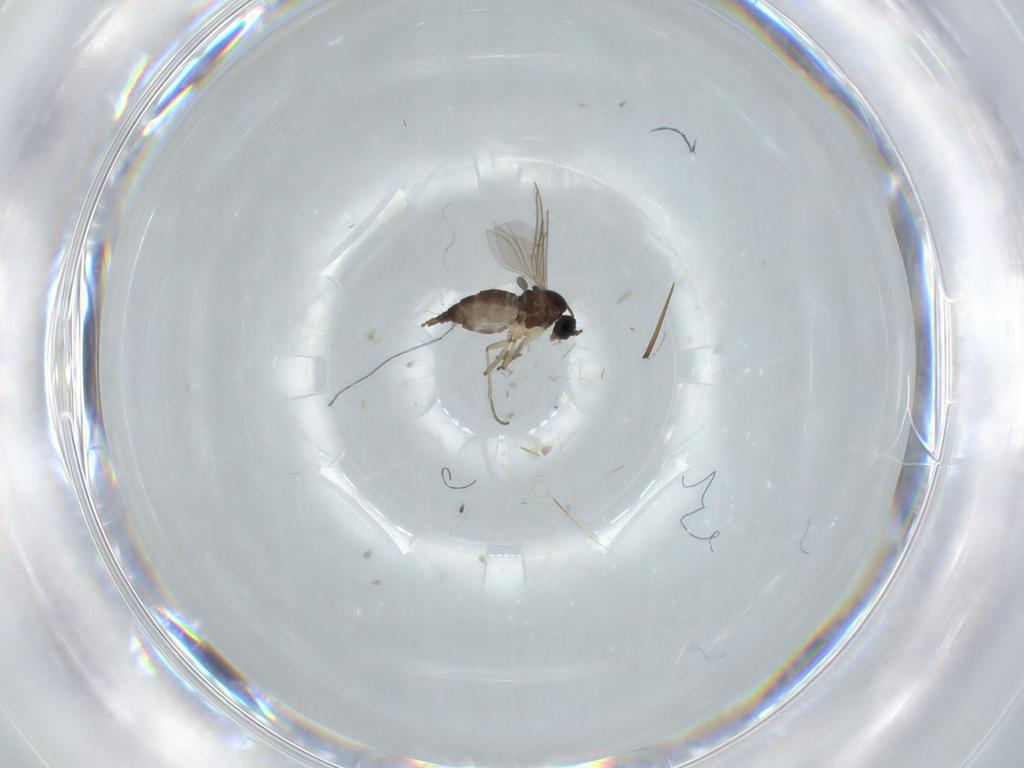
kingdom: Animalia
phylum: Arthropoda
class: Insecta
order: Diptera
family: Sciaridae
